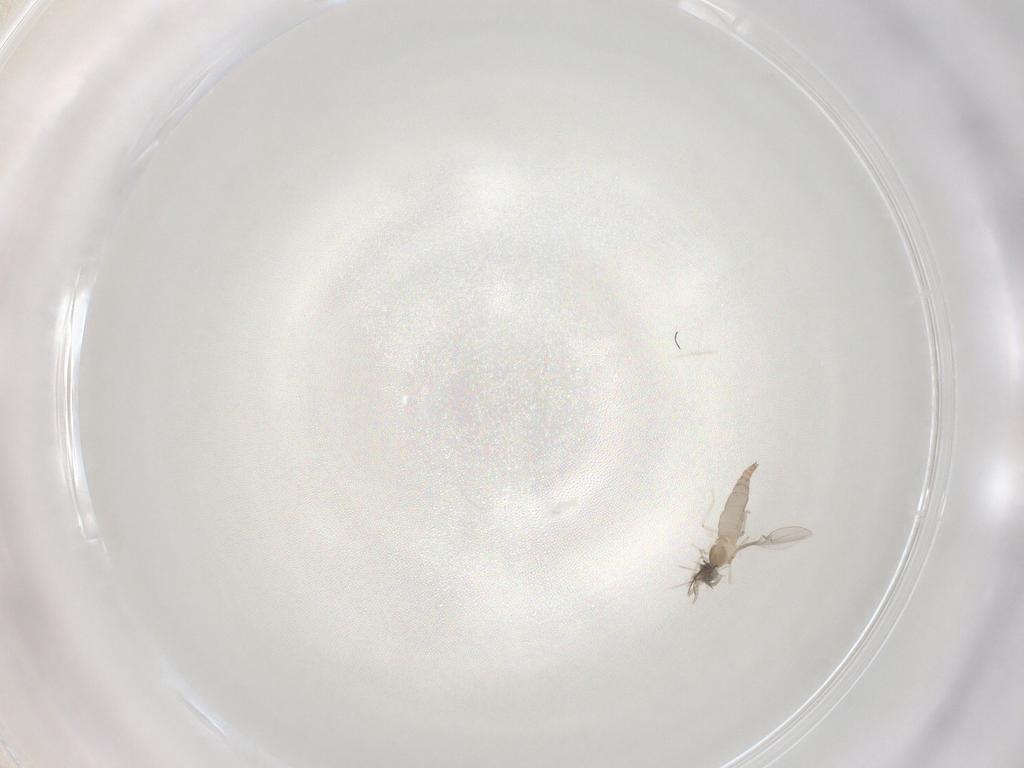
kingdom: Animalia
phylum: Arthropoda
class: Insecta
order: Diptera
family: Cecidomyiidae
